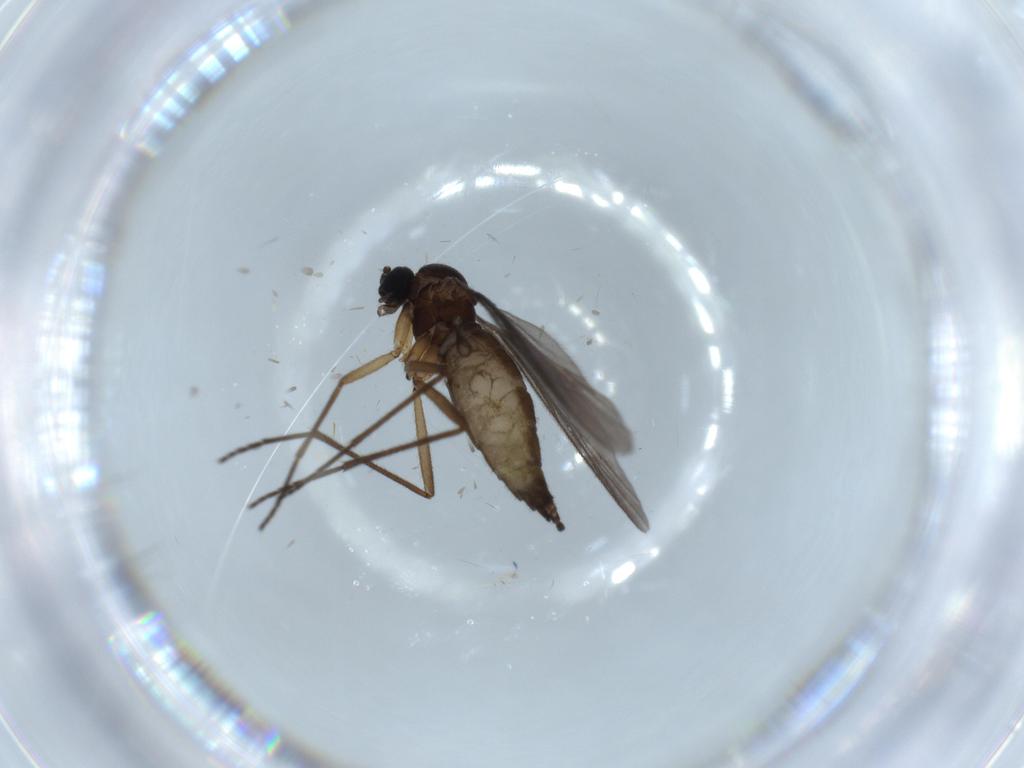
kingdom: Animalia
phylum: Arthropoda
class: Insecta
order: Diptera
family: Sciaridae
